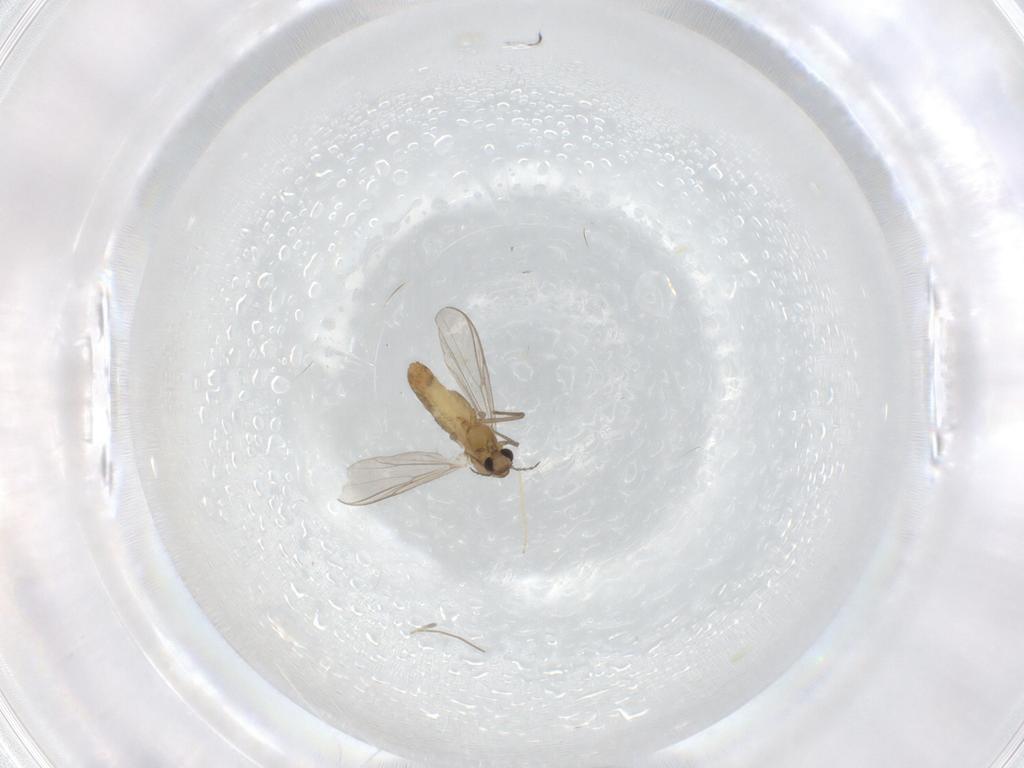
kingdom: Animalia
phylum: Arthropoda
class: Insecta
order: Diptera
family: Chironomidae
